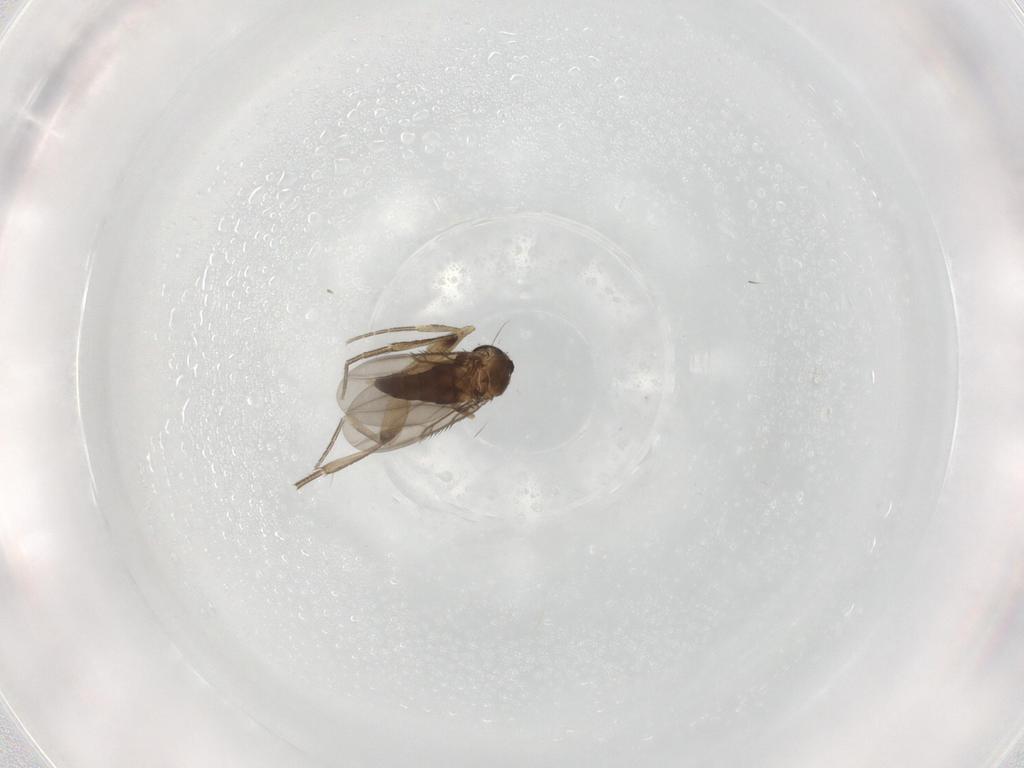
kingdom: Animalia
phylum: Arthropoda
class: Insecta
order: Diptera
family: Phoridae
